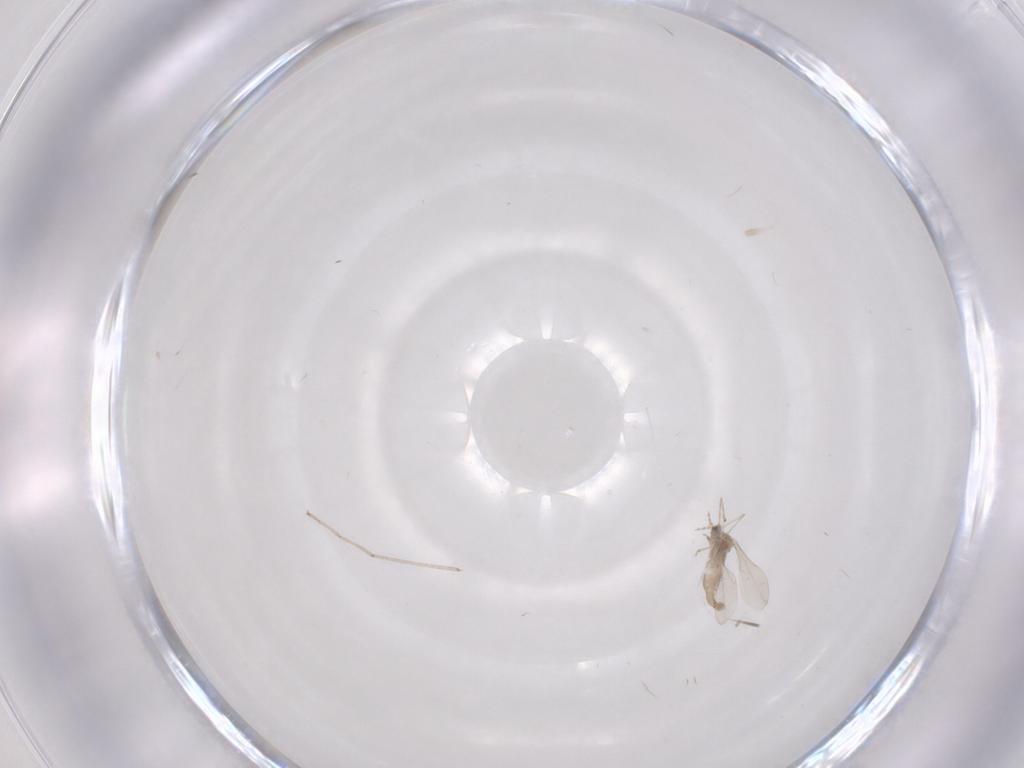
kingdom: Animalia
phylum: Arthropoda
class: Insecta
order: Diptera
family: Cecidomyiidae
